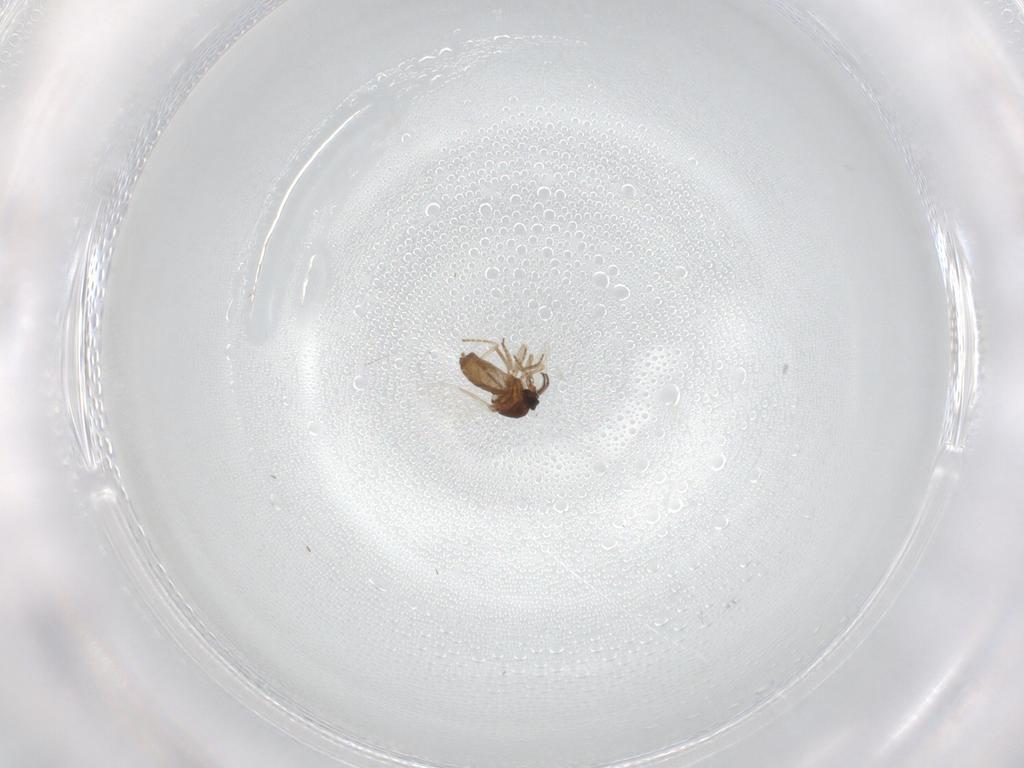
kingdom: Animalia
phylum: Arthropoda
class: Insecta
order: Diptera
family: Ceratopogonidae
